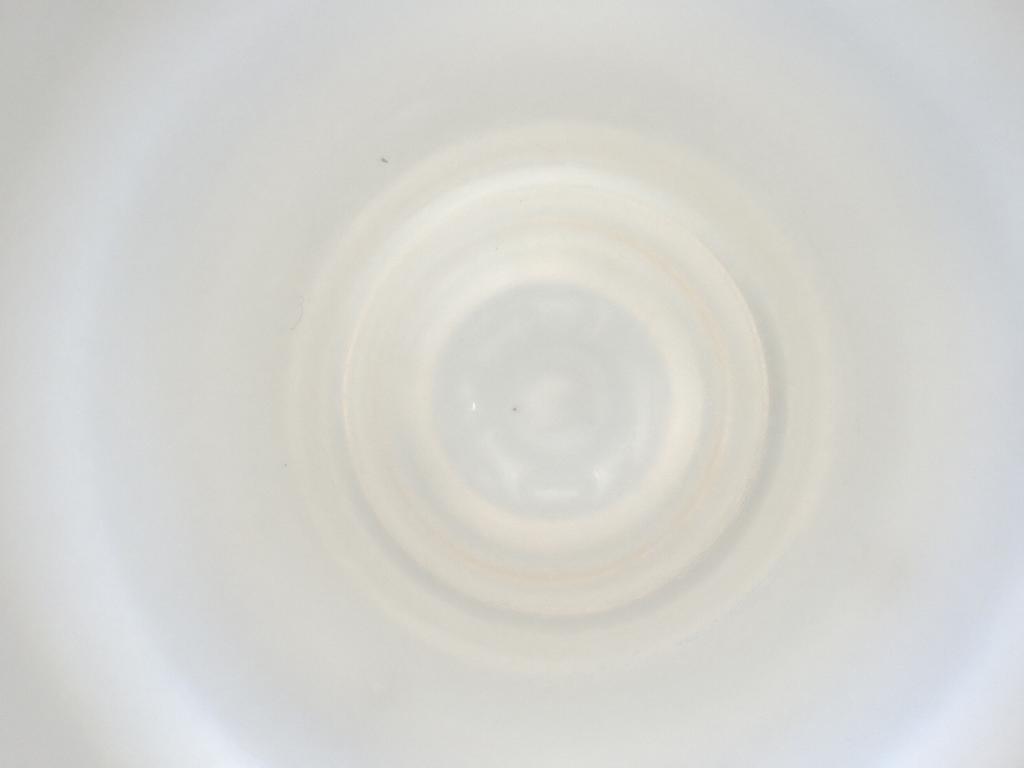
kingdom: Animalia
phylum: Arthropoda
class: Insecta
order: Diptera
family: Cecidomyiidae
